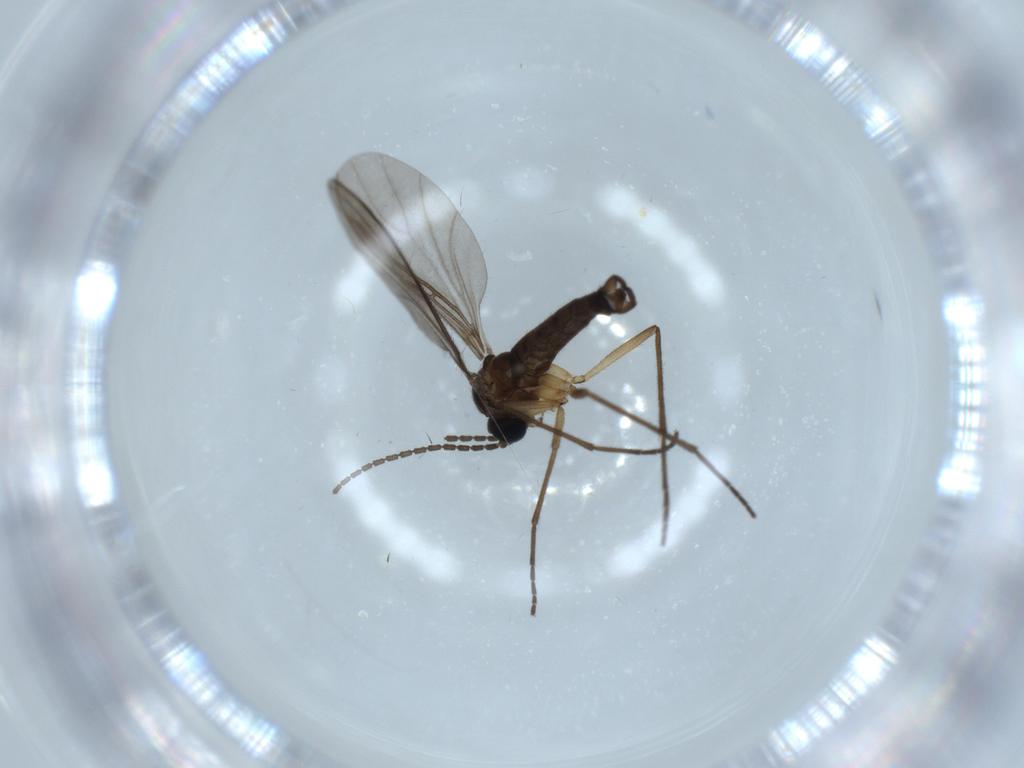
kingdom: Animalia
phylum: Arthropoda
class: Insecta
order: Diptera
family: Sciaridae
